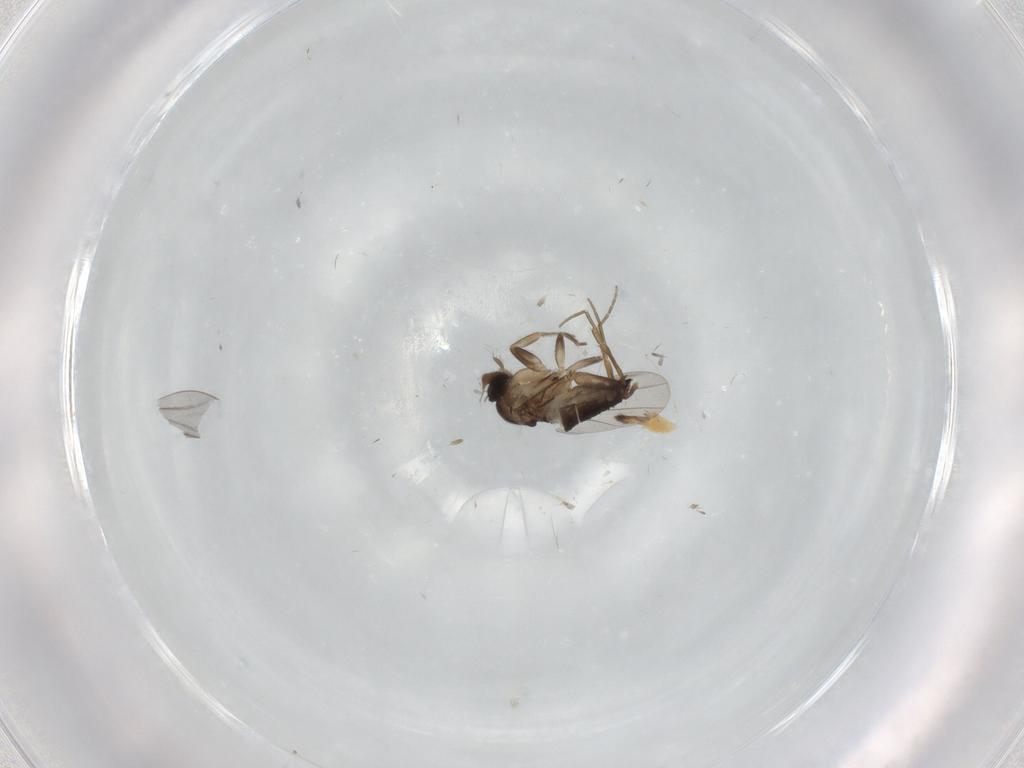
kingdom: Animalia
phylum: Arthropoda
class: Insecta
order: Diptera
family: Phoridae
